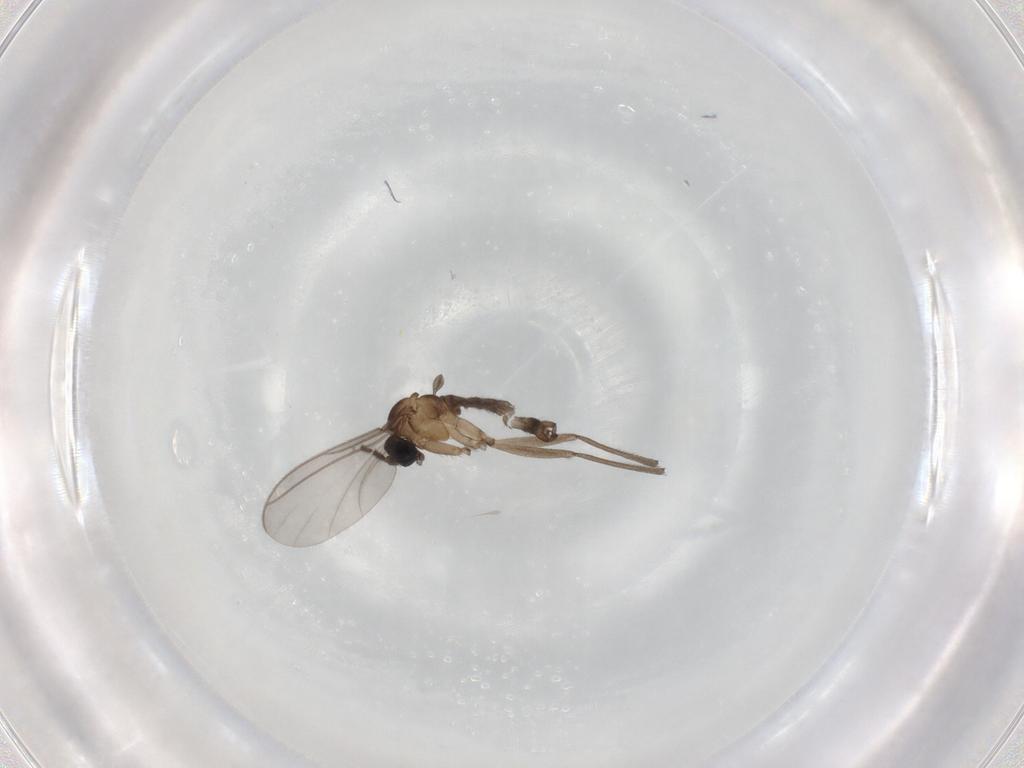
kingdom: Animalia
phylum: Arthropoda
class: Insecta
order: Diptera
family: Sciaridae
